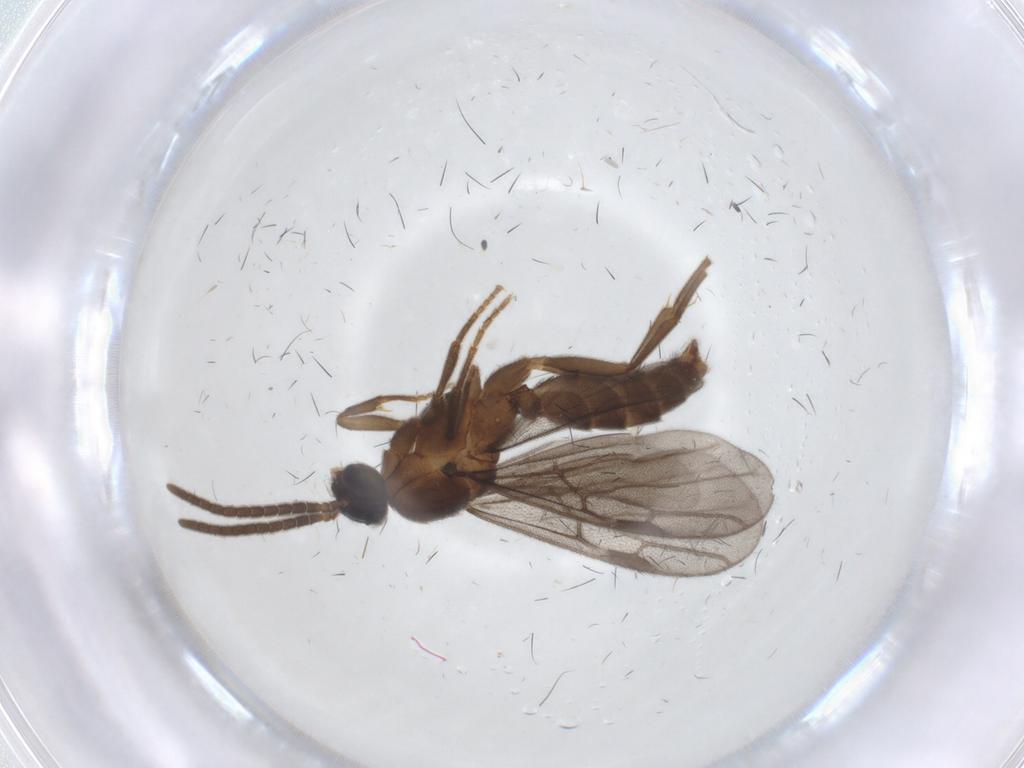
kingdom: Animalia
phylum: Arthropoda
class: Insecta
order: Hymenoptera
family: Formicidae
